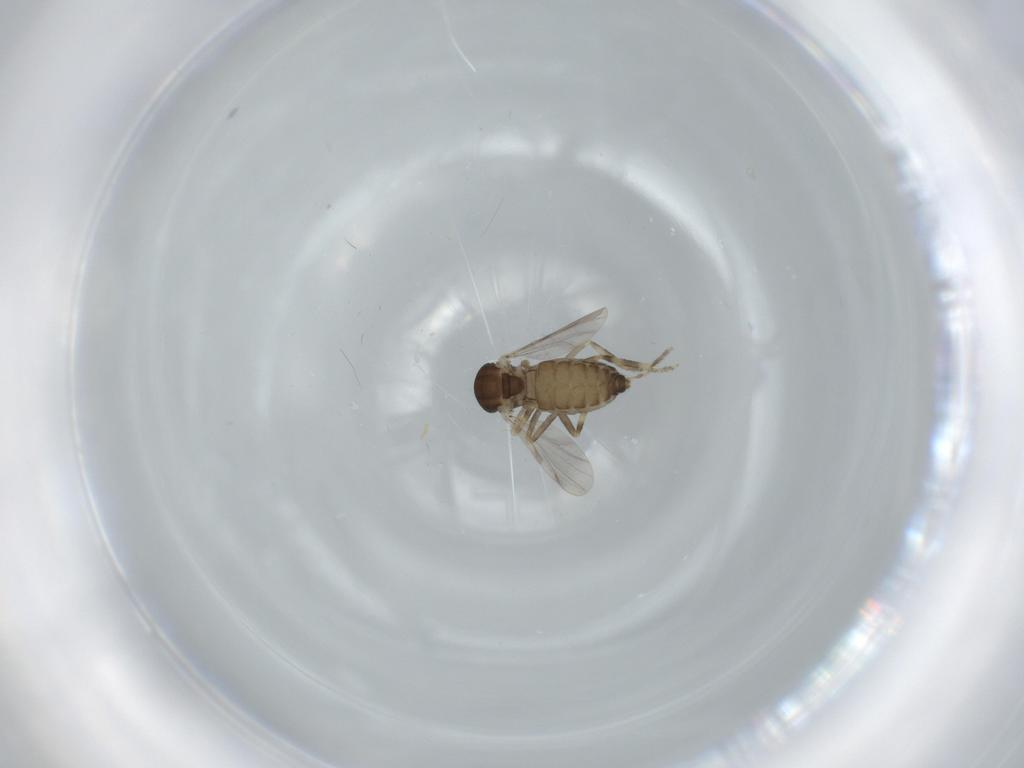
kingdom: Animalia
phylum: Arthropoda
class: Insecta
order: Diptera
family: Ceratopogonidae
